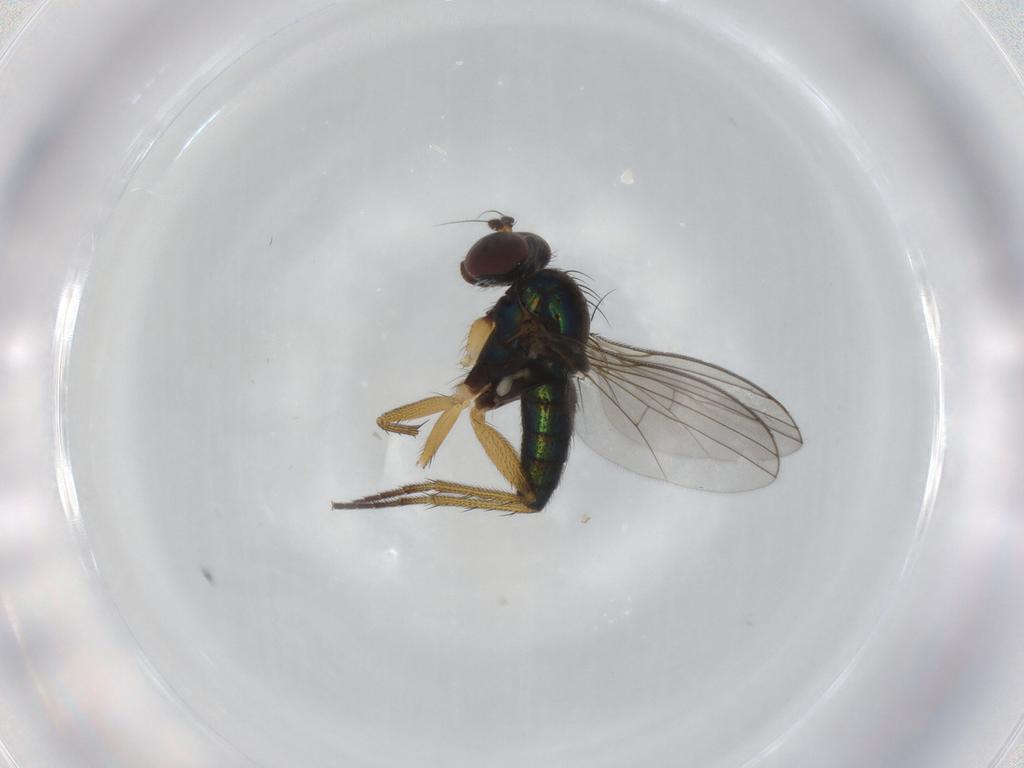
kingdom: Animalia
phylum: Arthropoda
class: Insecta
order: Diptera
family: Dolichopodidae
